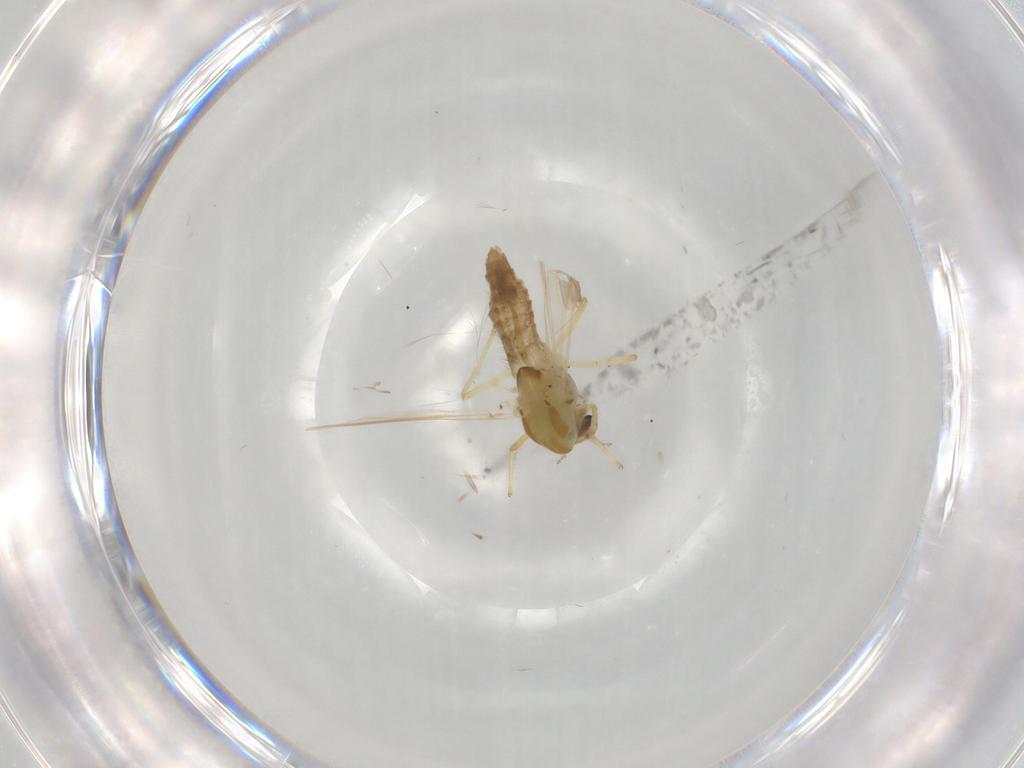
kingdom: Animalia
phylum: Arthropoda
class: Insecta
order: Diptera
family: Chironomidae
